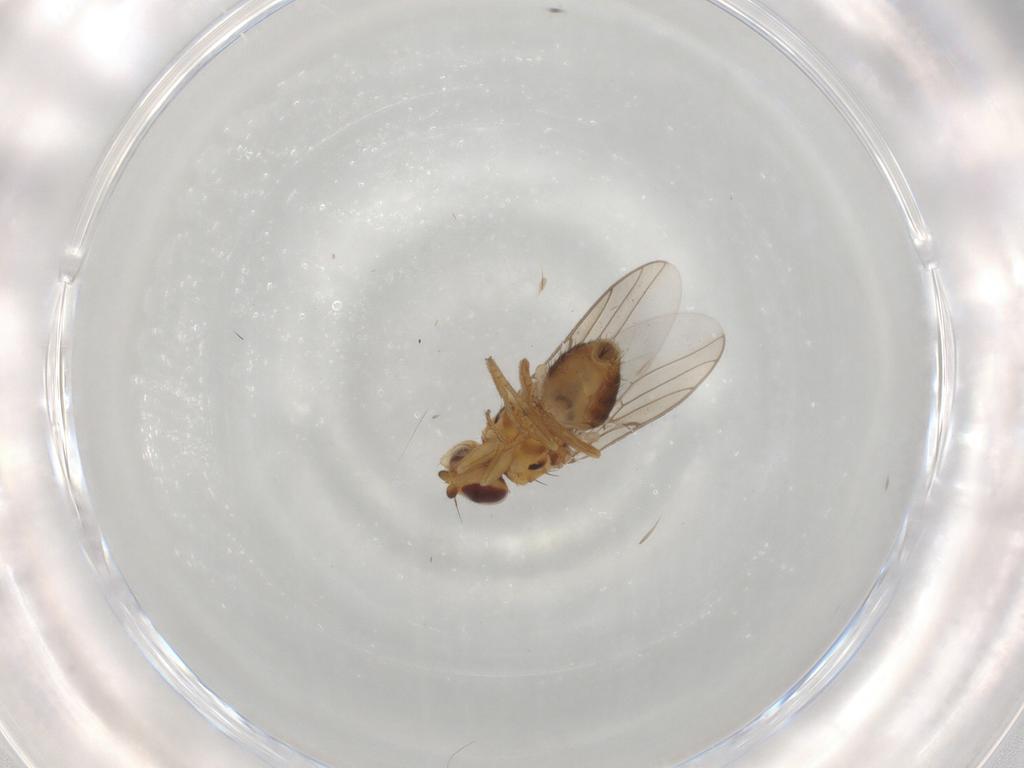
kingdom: Animalia
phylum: Arthropoda
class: Insecta
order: Diptera
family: Chloropidae
